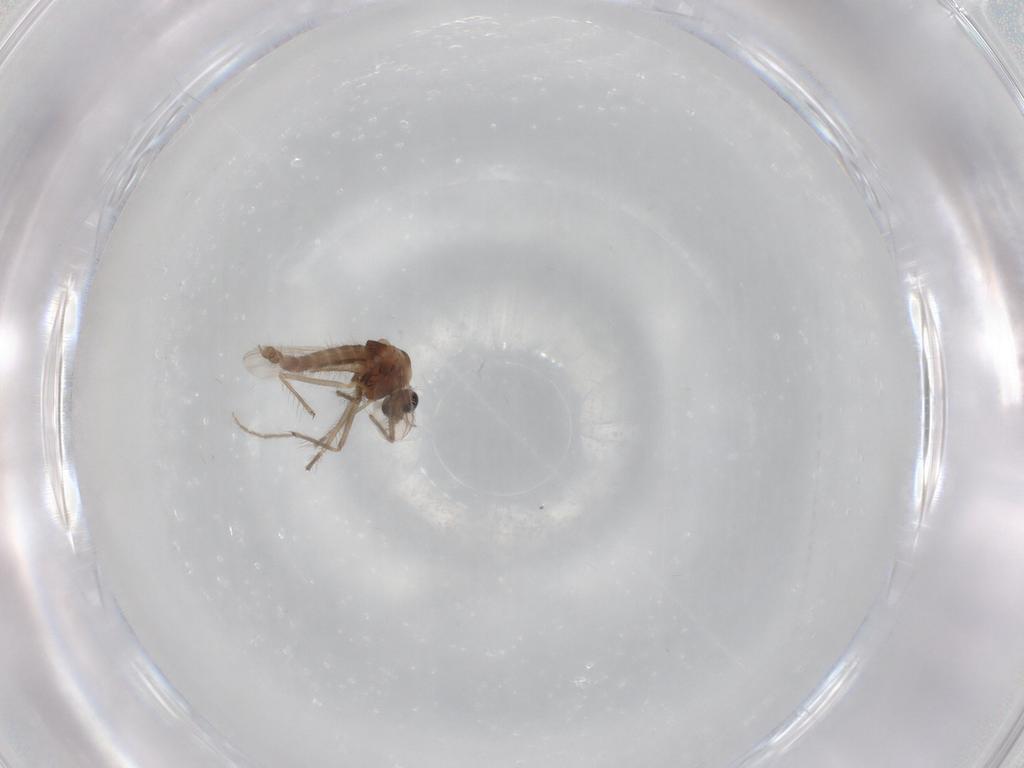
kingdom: Animalia
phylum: Arthropoda
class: Insecta
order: Diptera
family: Chironomidae
